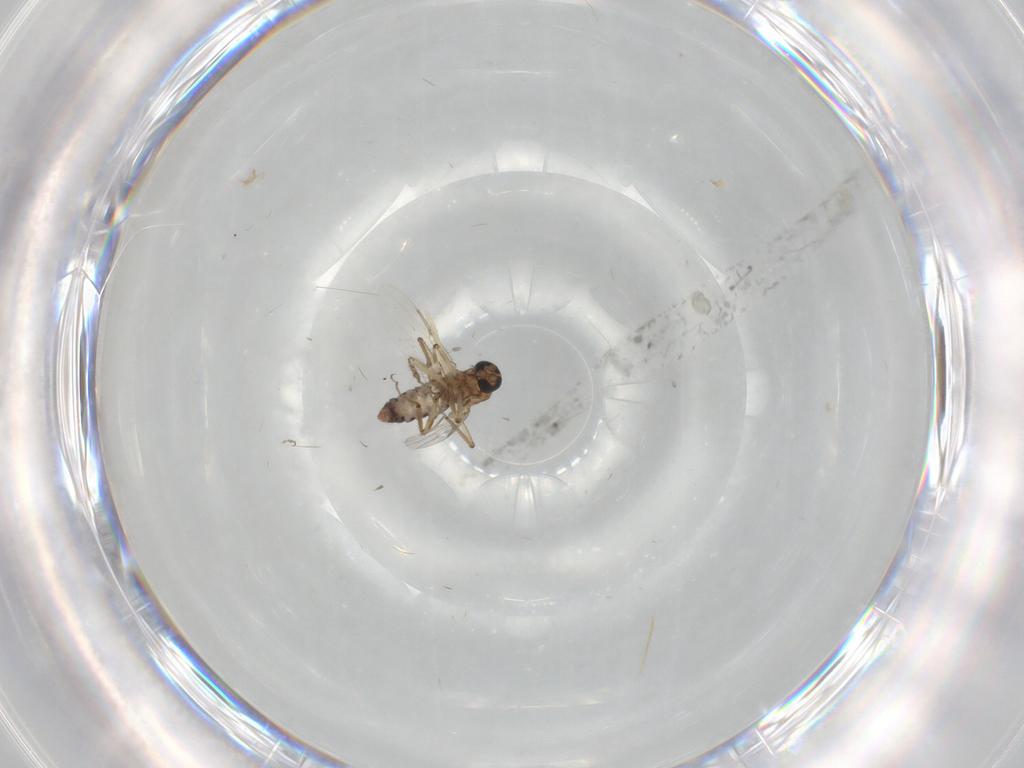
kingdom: Animalia
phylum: Arthropoda
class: Insecta
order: Diptera
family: Ceratopogonidae
